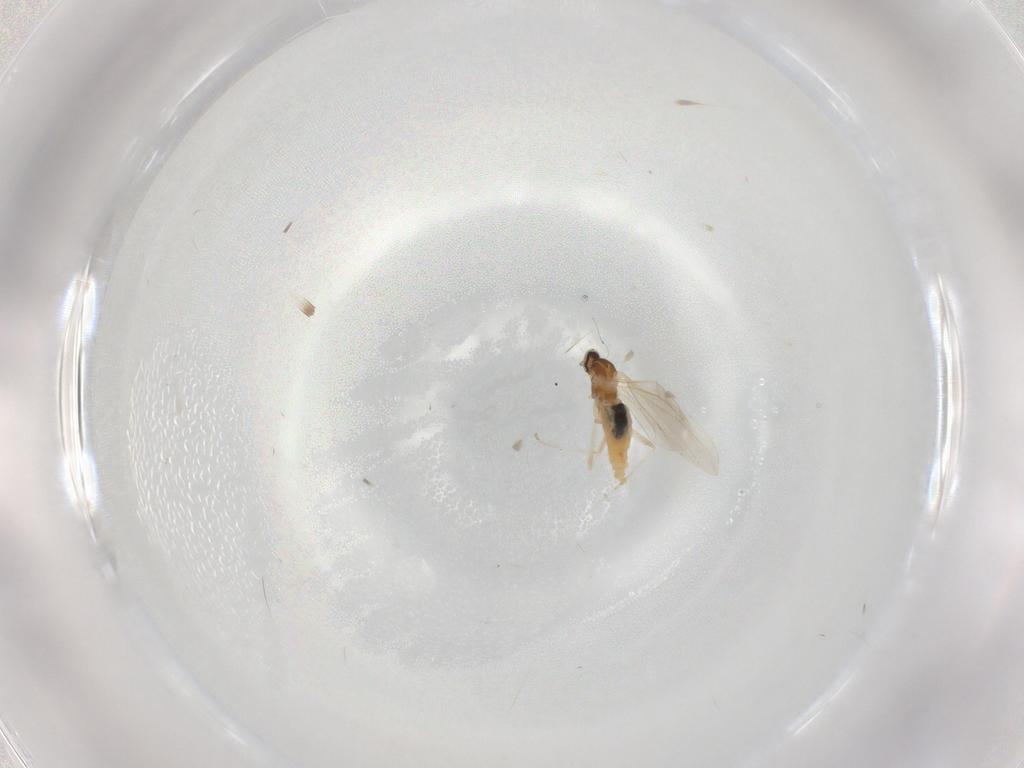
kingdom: Animalia
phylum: Arthropoda
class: Insecta
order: Diptera
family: Cecidomyiidae
